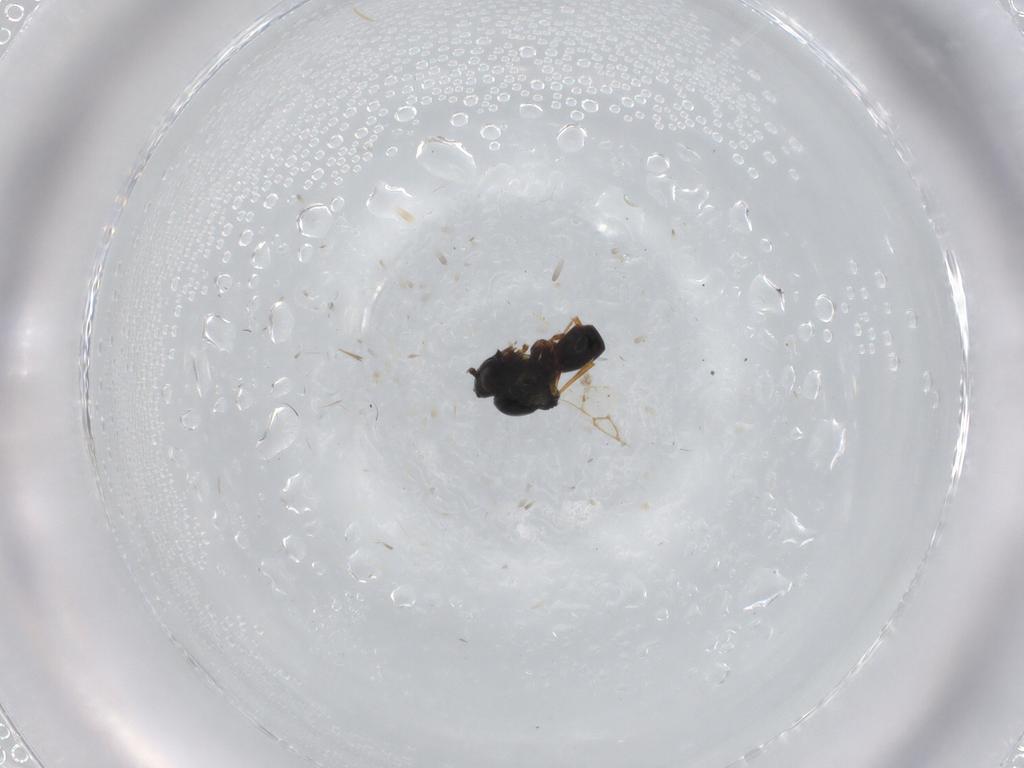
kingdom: Animalia
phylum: Arthropoda
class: Insecta
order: Hymenoptera
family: Figitidae
